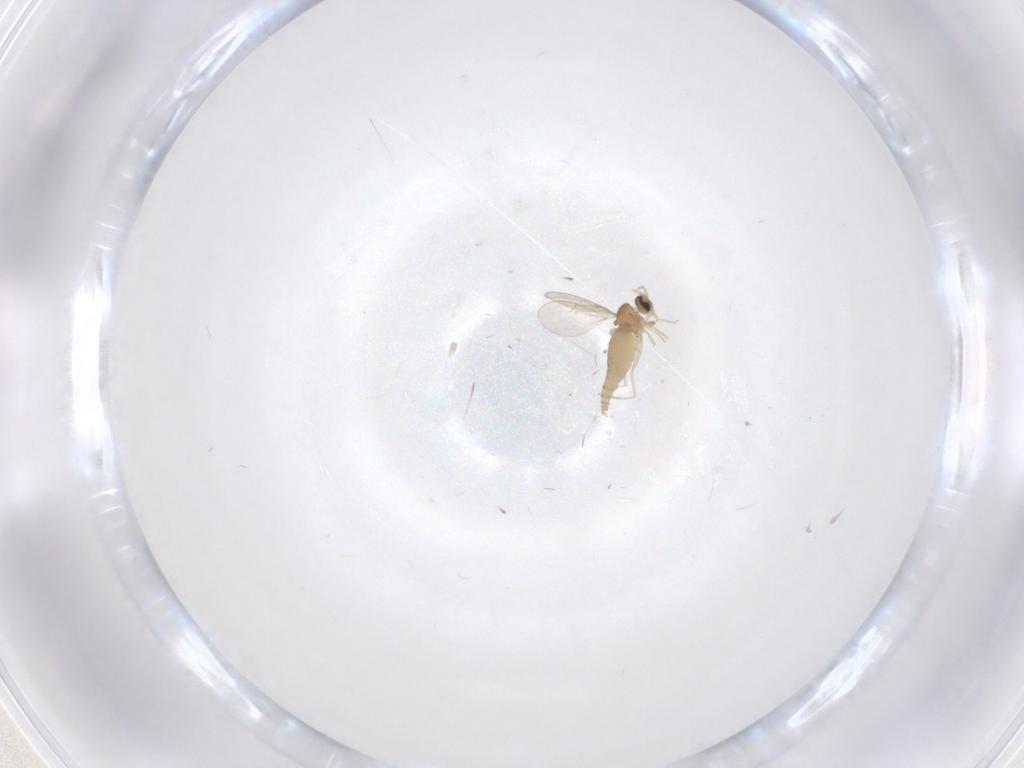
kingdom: Animalia
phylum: Arthropoda
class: Insecta
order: Diptera
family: Cecidomyiidae
